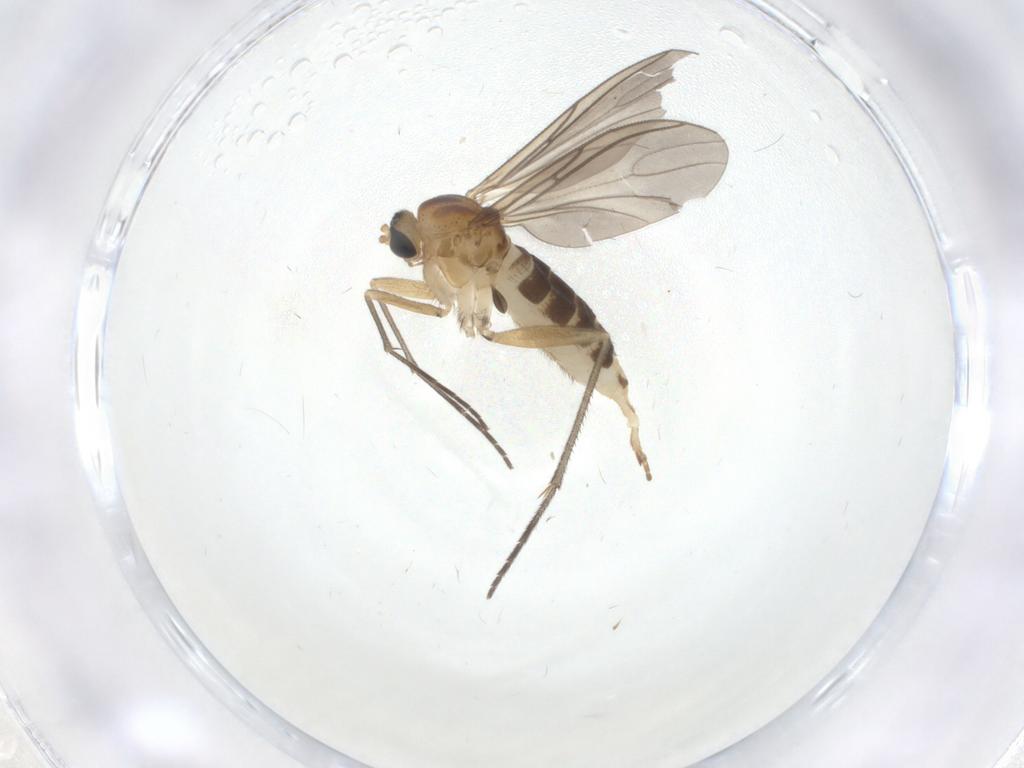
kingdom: Animalia
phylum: Arthropoda
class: Insecta
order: Diptera
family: Sciaridae
